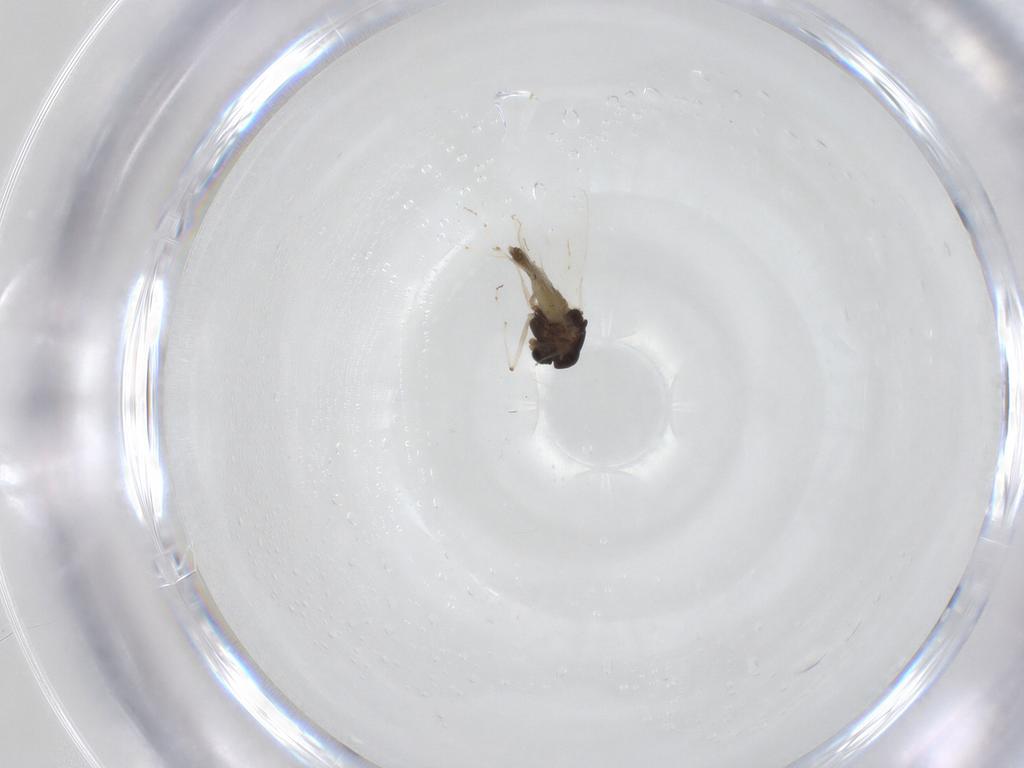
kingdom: Animalia
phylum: Arthropoda
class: Insecta
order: Diptera
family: Chironomidae
